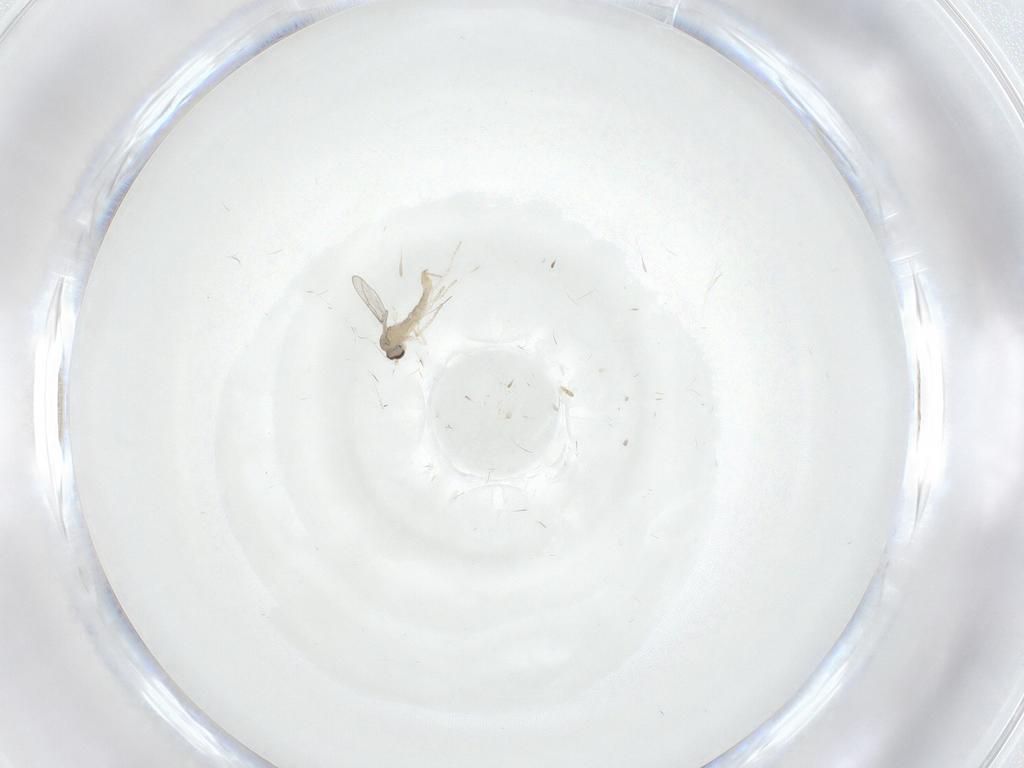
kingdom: Animalia
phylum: Arthropoda
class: Insecta
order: Diptera
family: Cecidomyiidae
